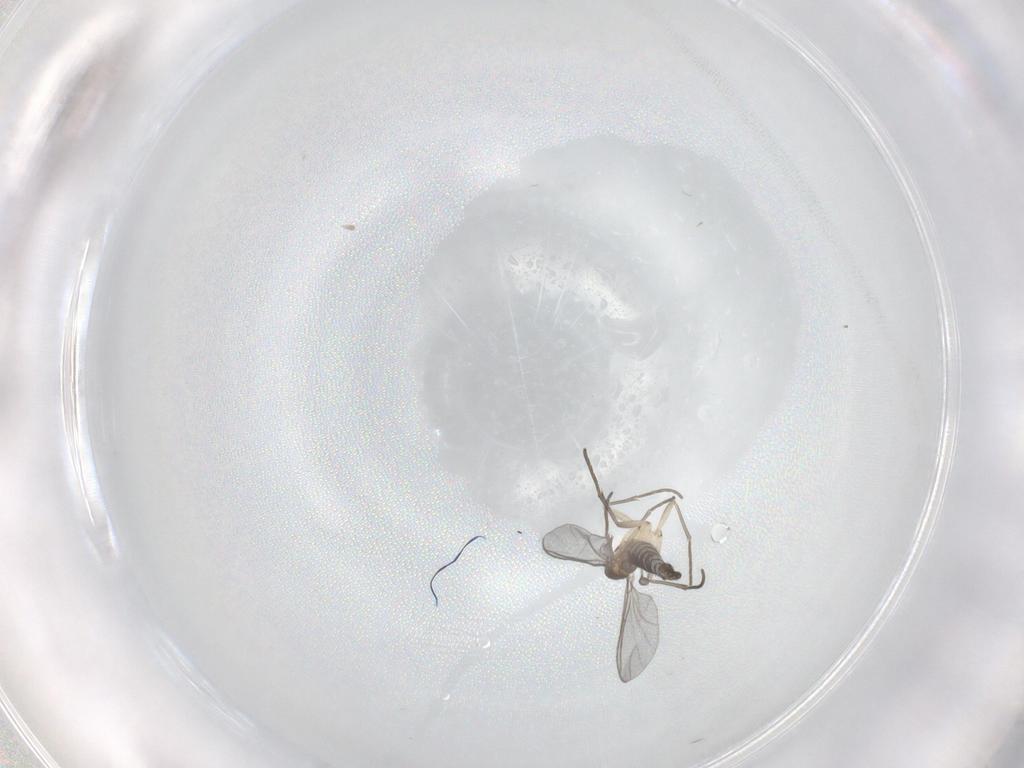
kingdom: Animalia
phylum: Arthropoda
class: Insecta
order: Diptera
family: Sciaridae
